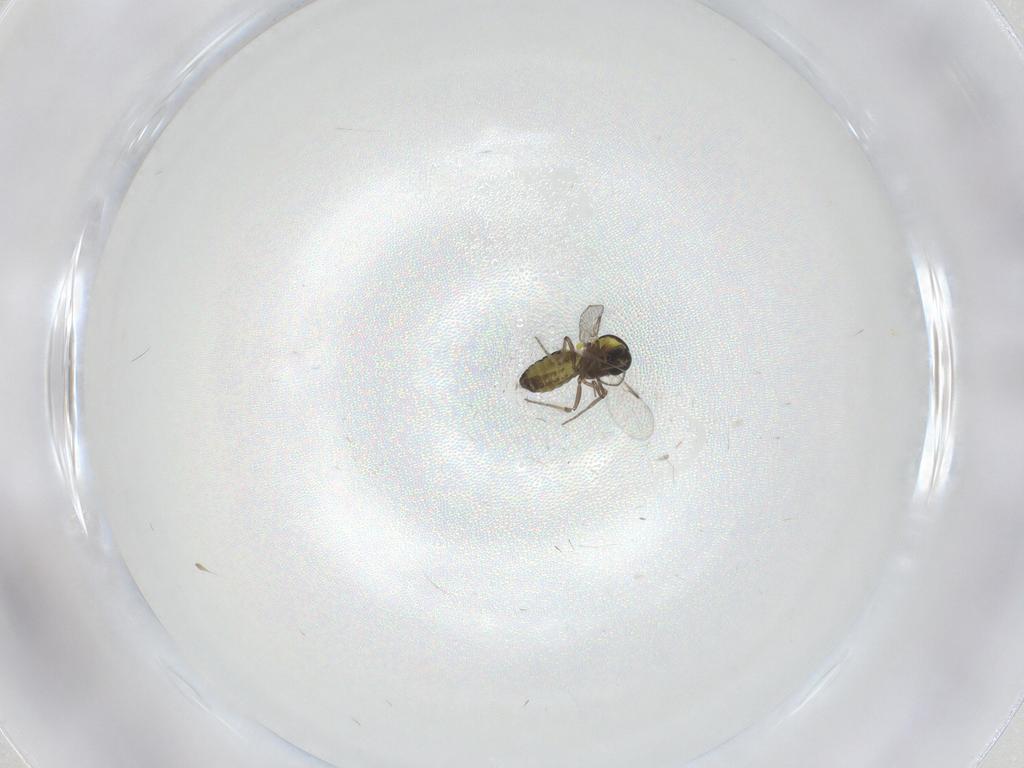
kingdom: Animalia
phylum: Arthropoda
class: Insecta
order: Diptera
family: Ceratopogonidae
